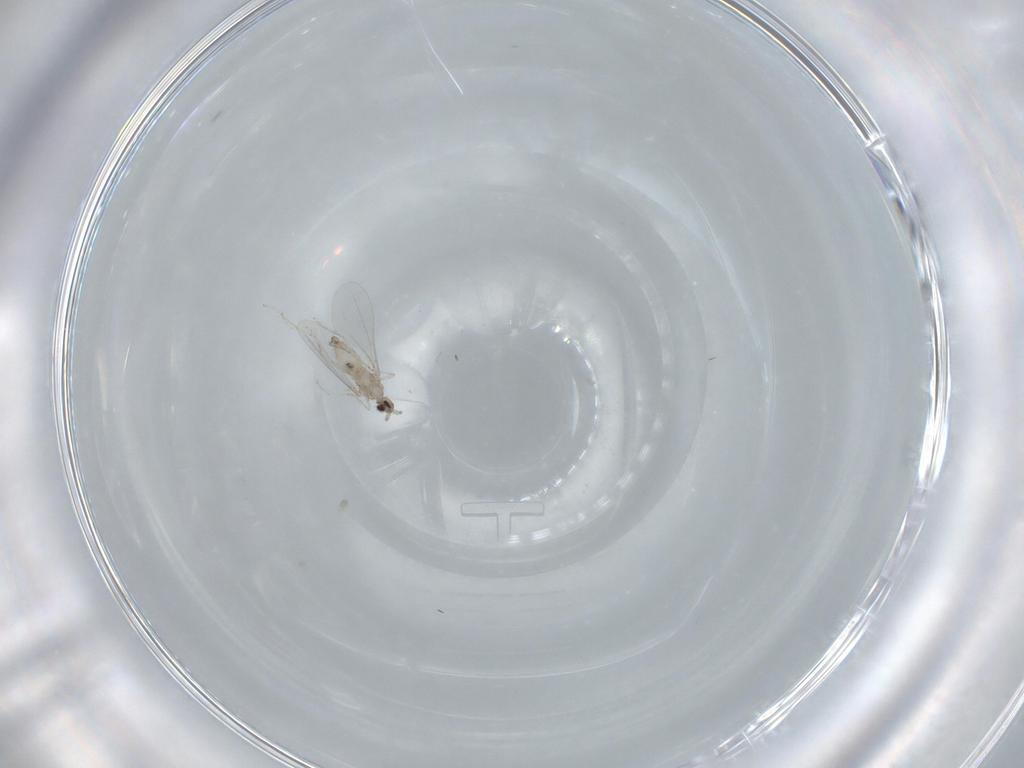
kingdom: Animalia
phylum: Arthropoda
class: Insecta
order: Diptera
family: Cecidomyiidae
